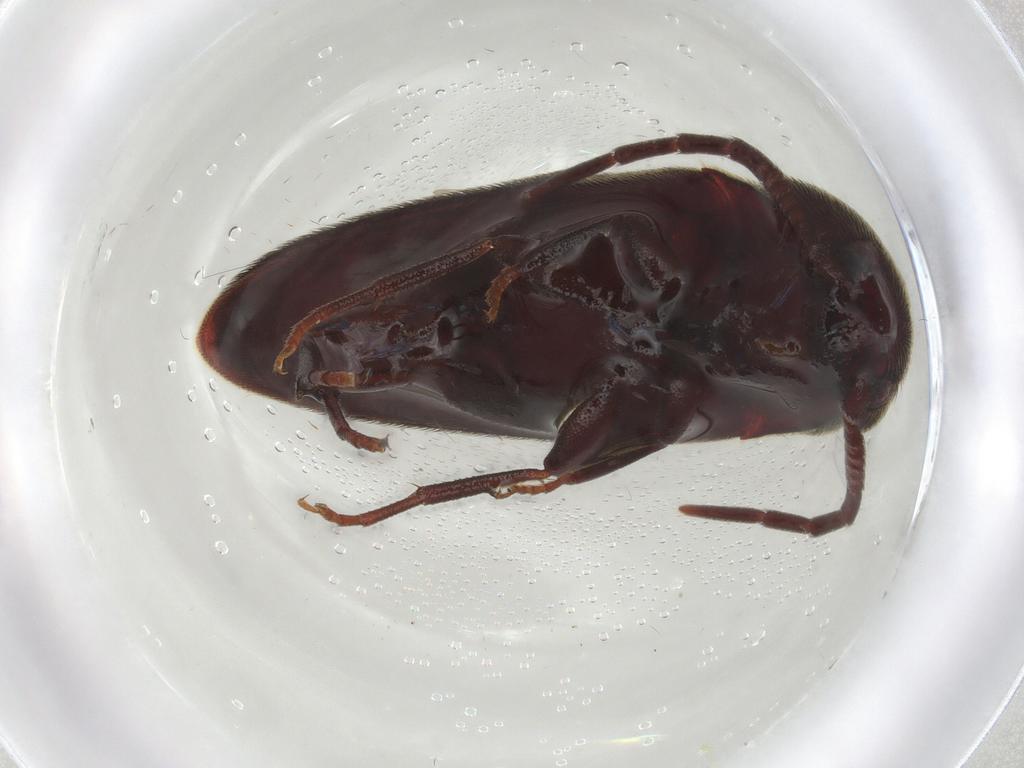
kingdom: Animalia
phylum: Arthropoda
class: Insecta
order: Coleoptera
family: Eucnemidae
